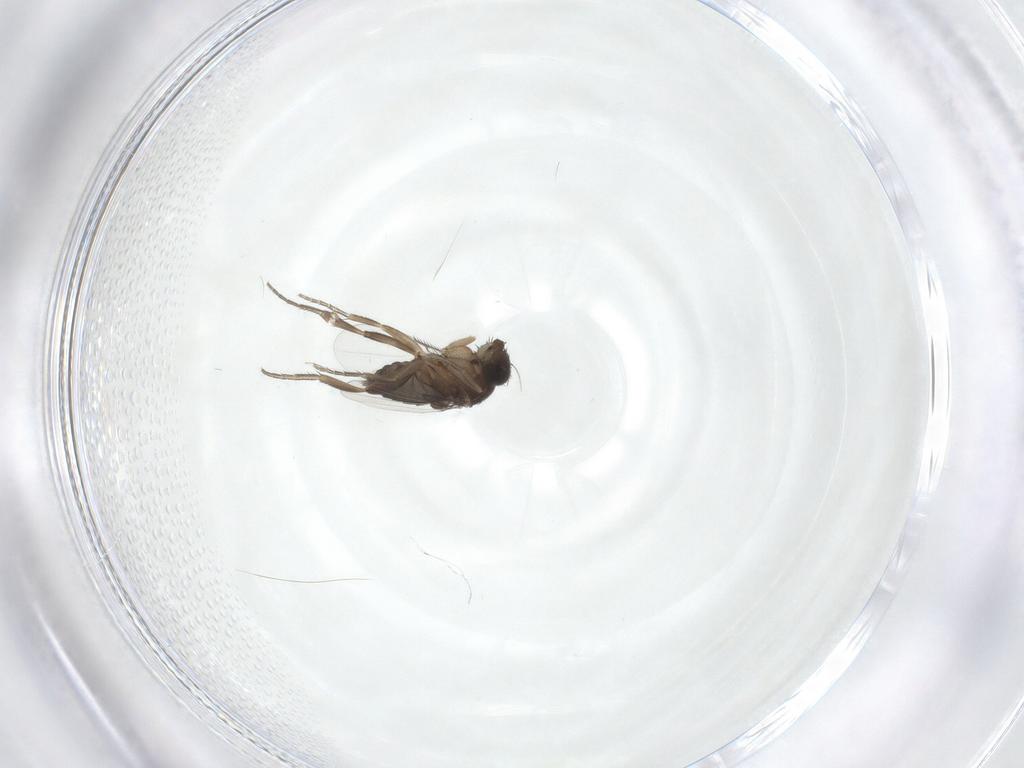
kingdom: Animalia
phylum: Arthropoda
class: Insecta
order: Diptera
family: Phoridae
